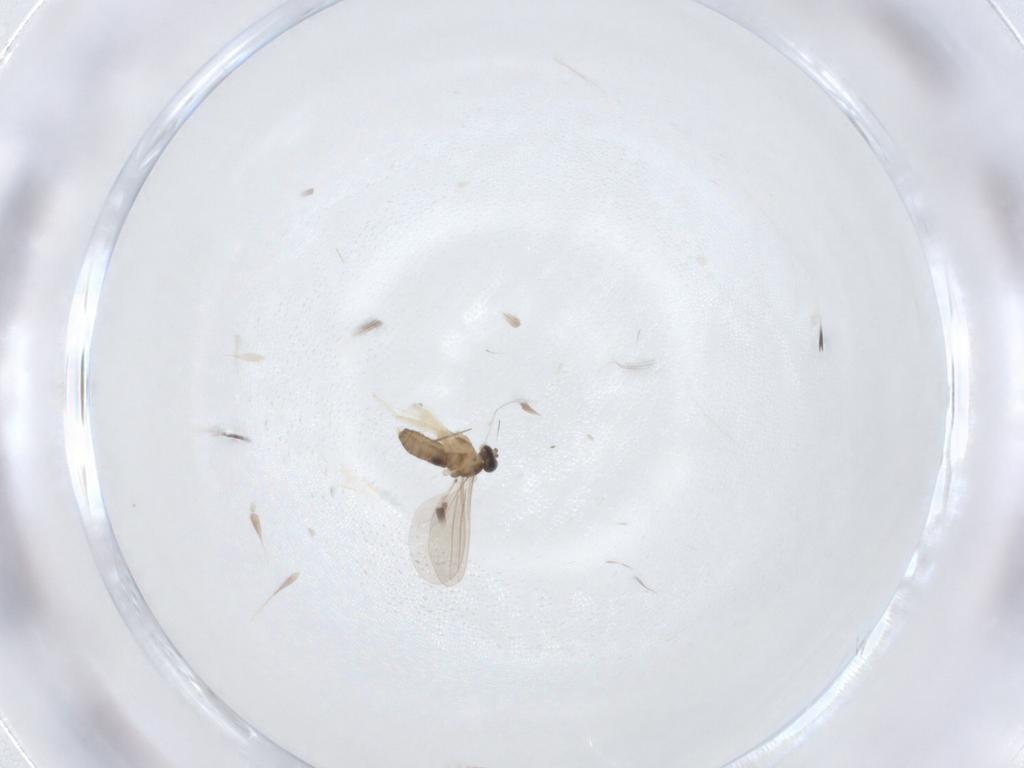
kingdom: Animalia
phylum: Arthropoda
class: Insecta
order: Diptera
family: Cecidomyiidae
